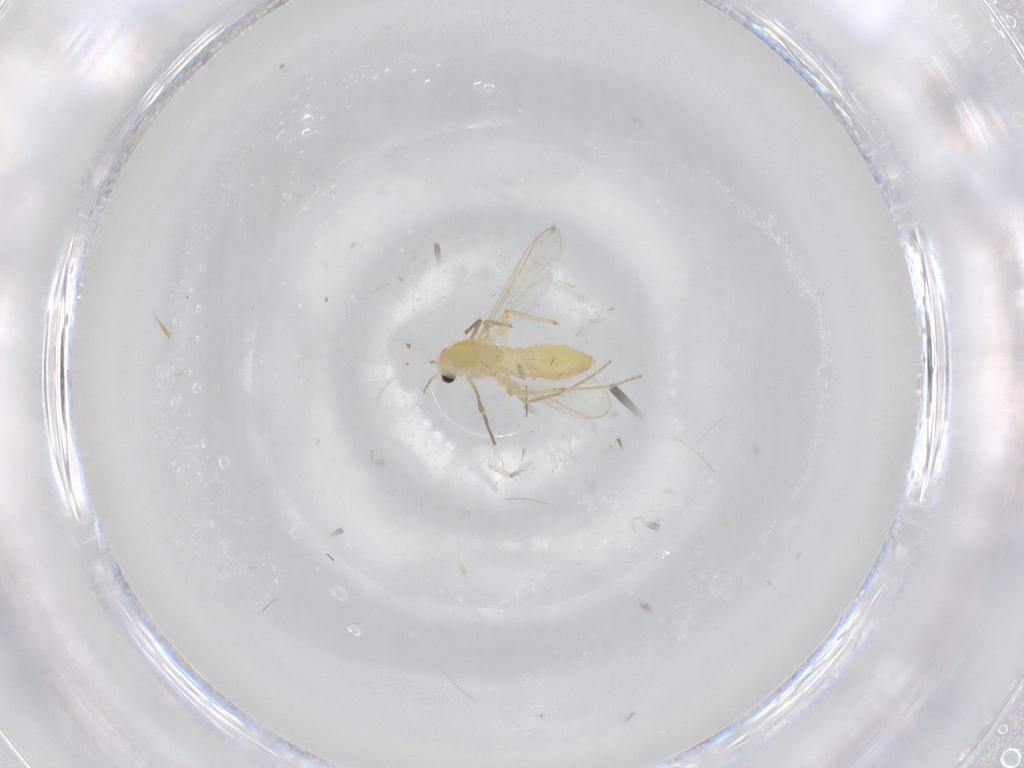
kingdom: Animalia
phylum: Arthropoda
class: Insecta
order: Diptera
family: Chironomidae
